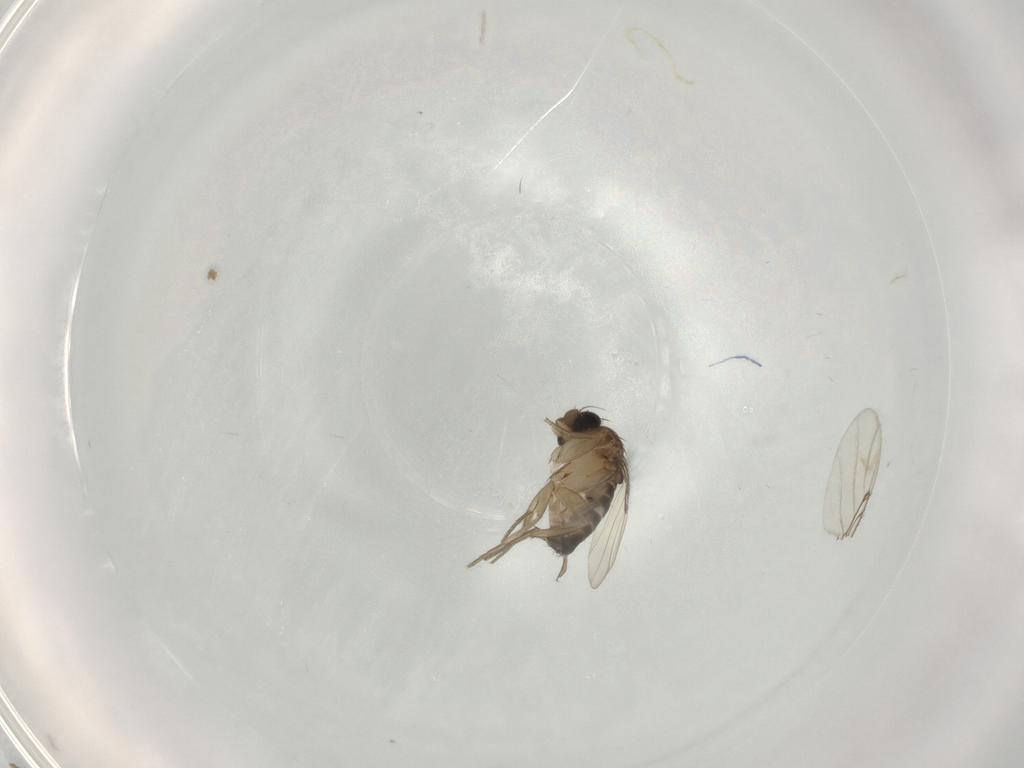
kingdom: Animalia
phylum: Arthropoda
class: Insecta
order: Diptera
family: Phoridae
